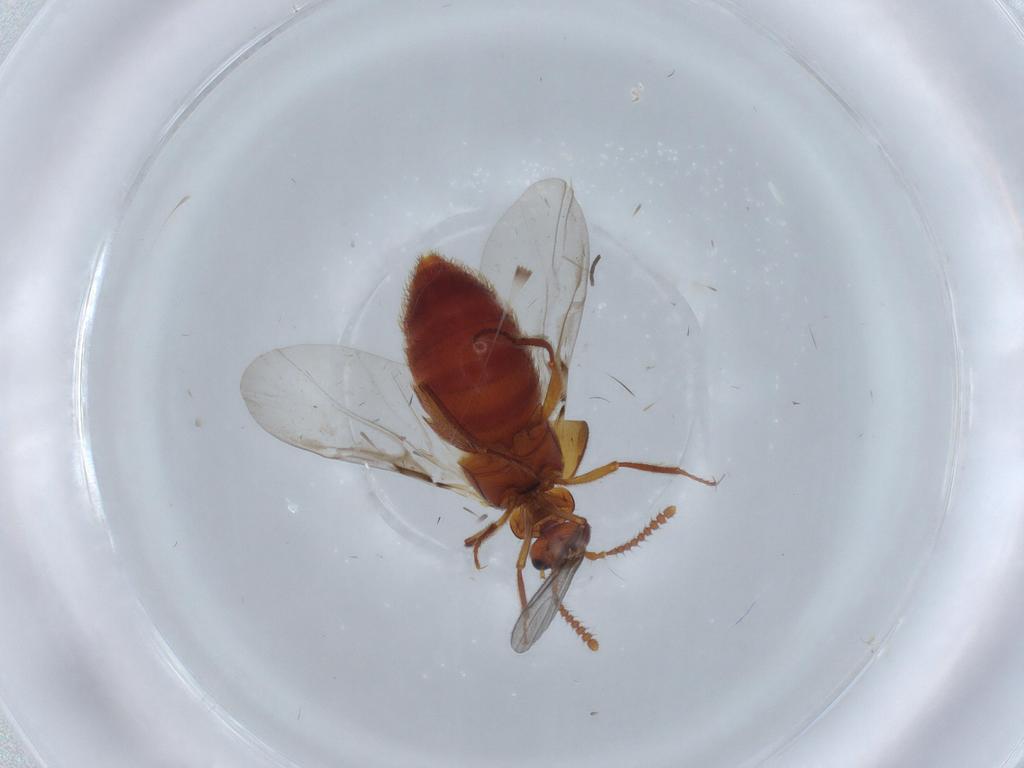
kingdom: Animalia
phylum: Arthropoda
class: Insecta
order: Coleoptera
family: Staphylinidae
